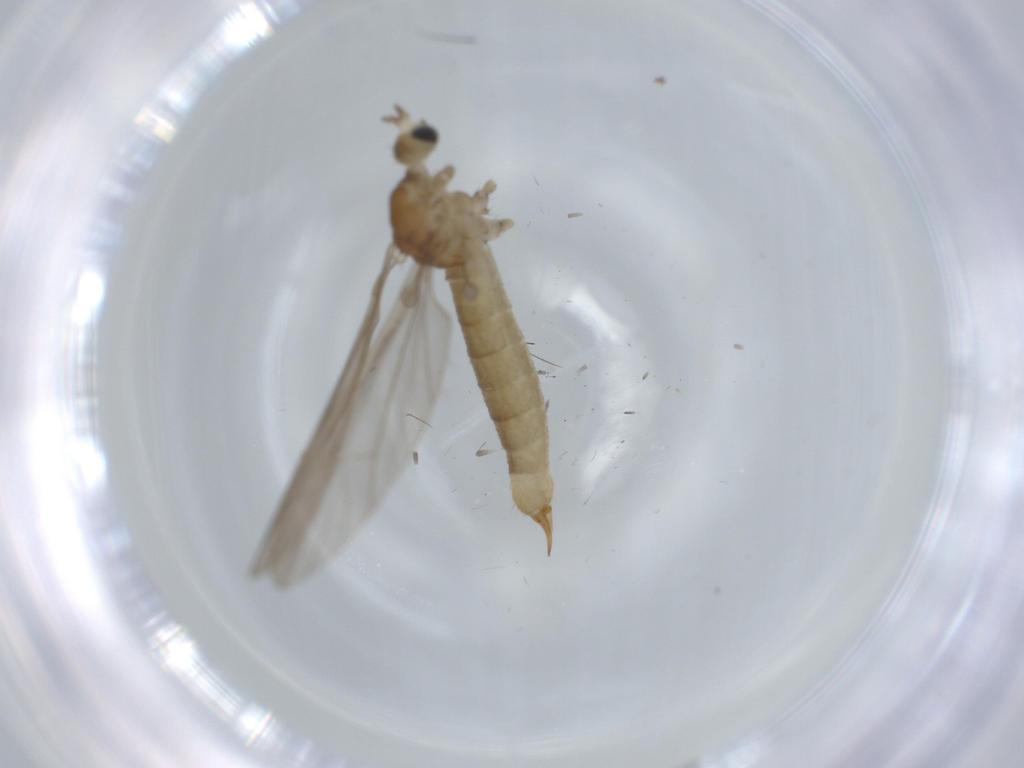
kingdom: Animalia
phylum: Arthropoda
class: Insecta
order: Diptera
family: Limoniidae
